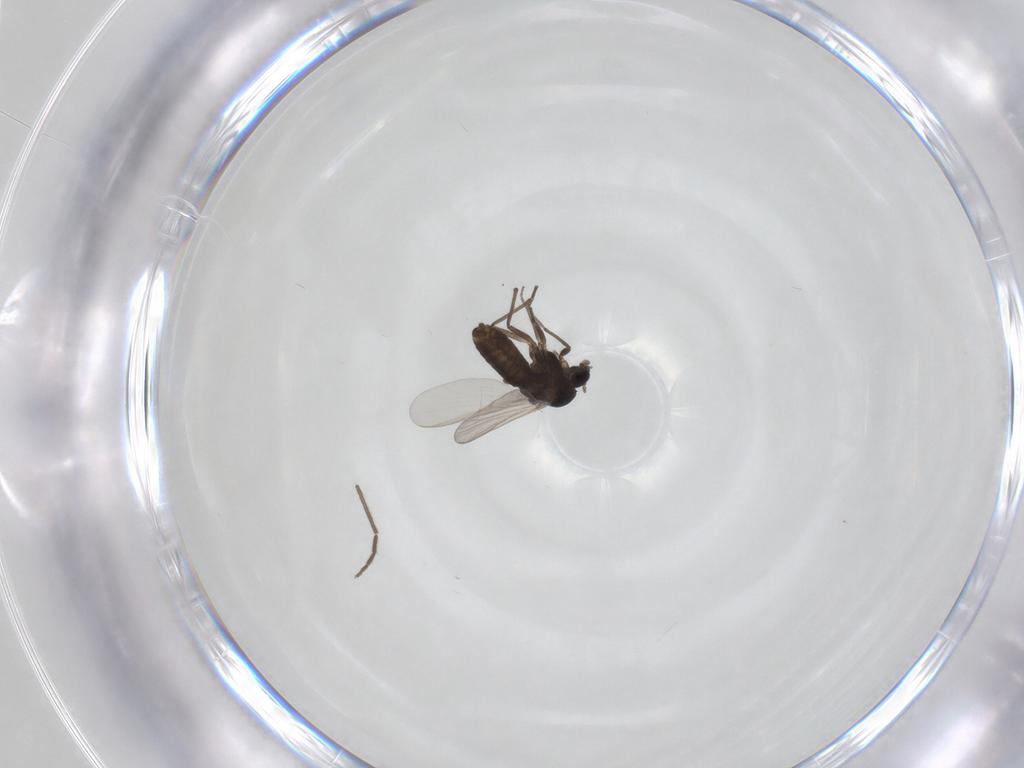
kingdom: Animalia
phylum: Arthropoda
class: Insecta
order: Diptera
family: Chironomidae
